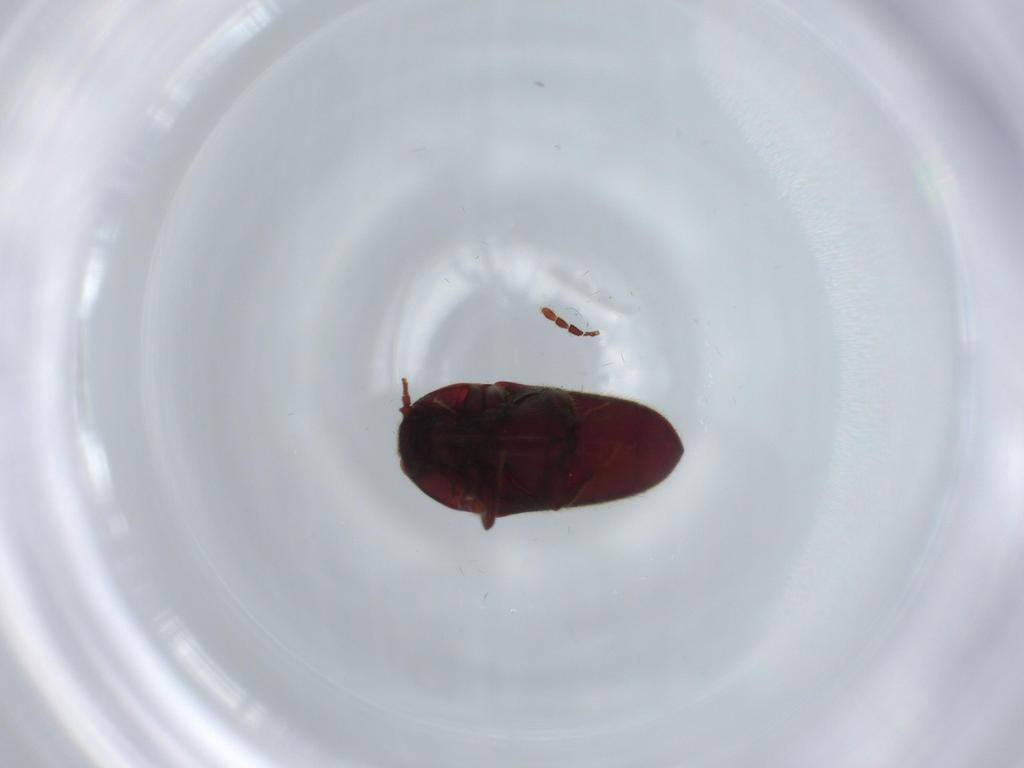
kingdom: Animalia
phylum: Arthropoda
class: Insecta
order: Coleoptera
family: Throscidae
